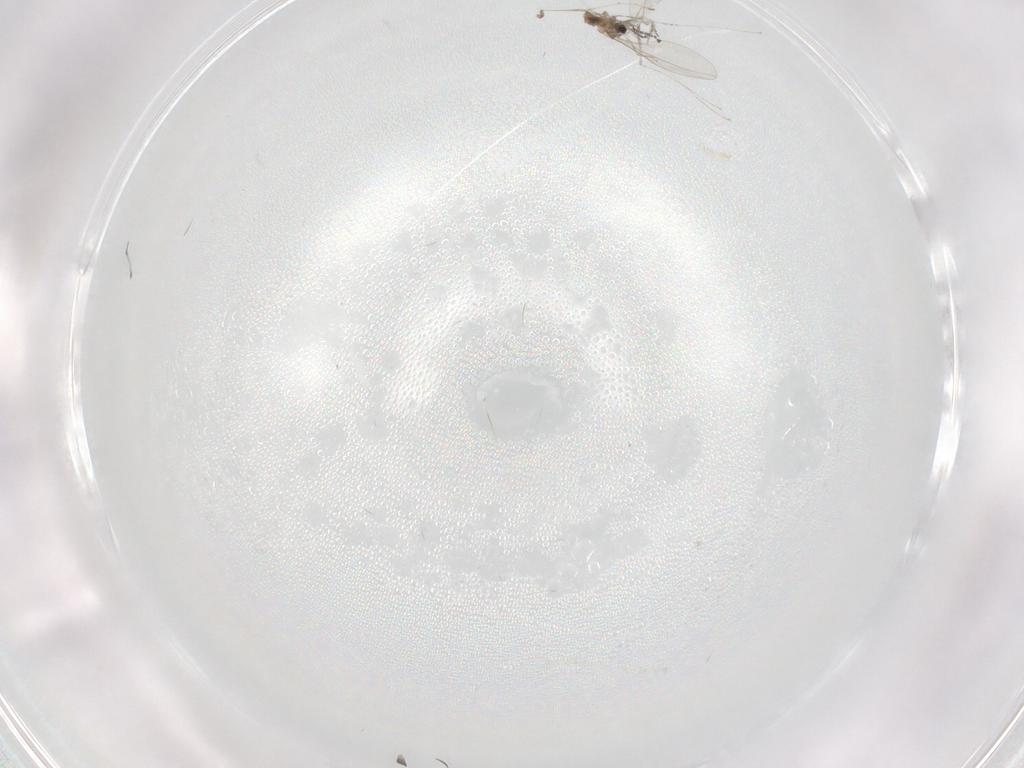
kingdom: Animalia
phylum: Arthropoda
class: Insecta
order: Diptera
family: Cecidomyiidae
